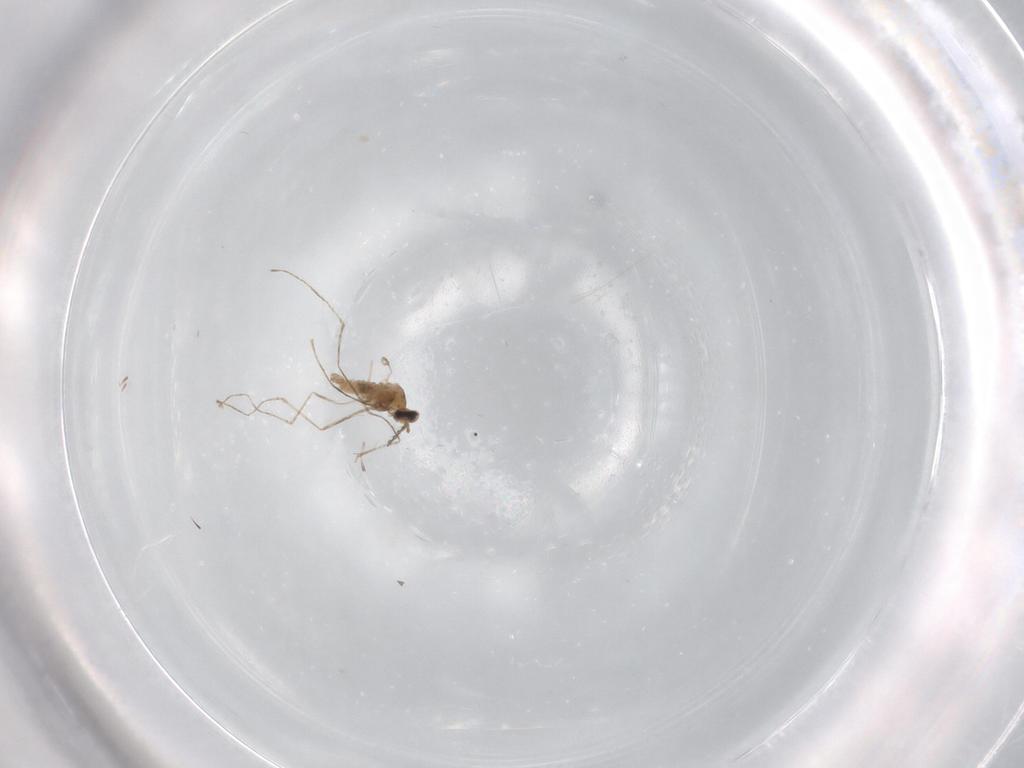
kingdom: Animalia
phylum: Arthropoda
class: Insecta
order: Diptera
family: Cecidomyiidae
